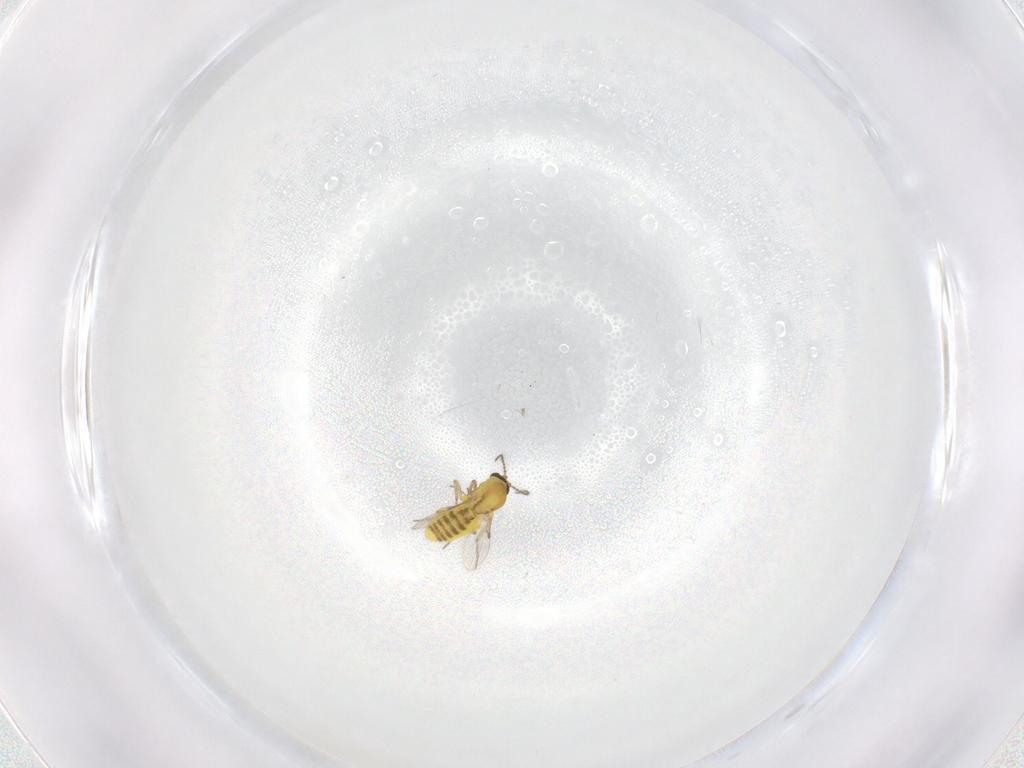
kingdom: Animalia
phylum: Arthropoda
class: Insecta
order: Diptera
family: Ceratopogonidae
